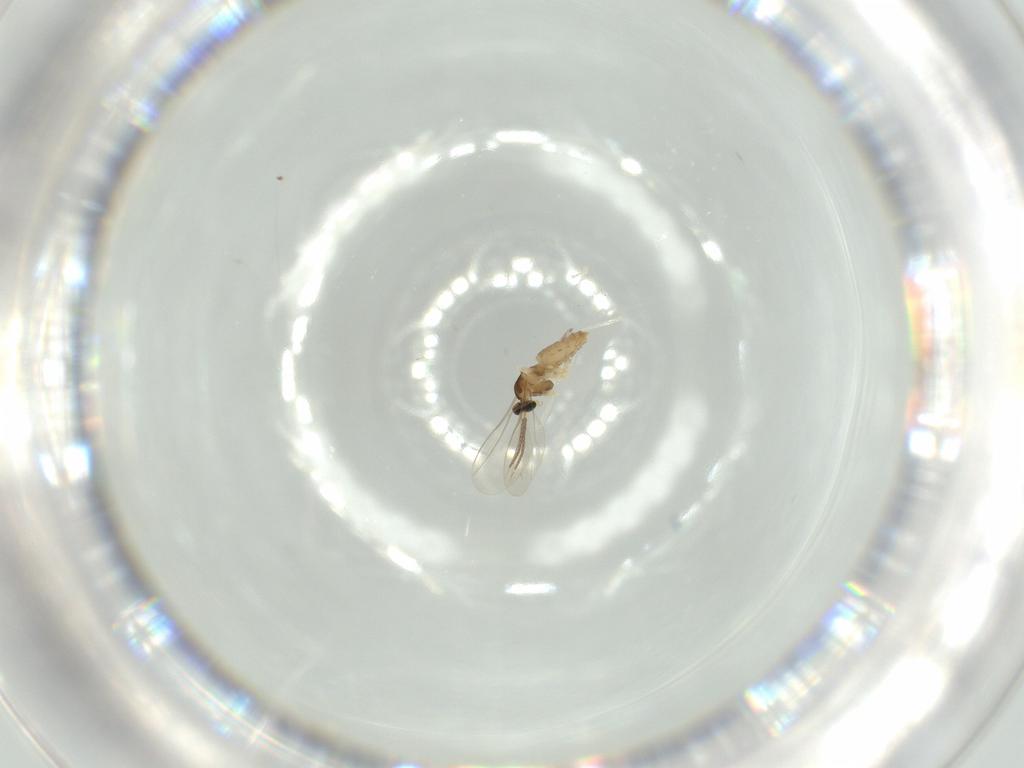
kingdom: Animalia
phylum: Arthropoda
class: Insecta
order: Diptera
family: Cecidomyiidae
